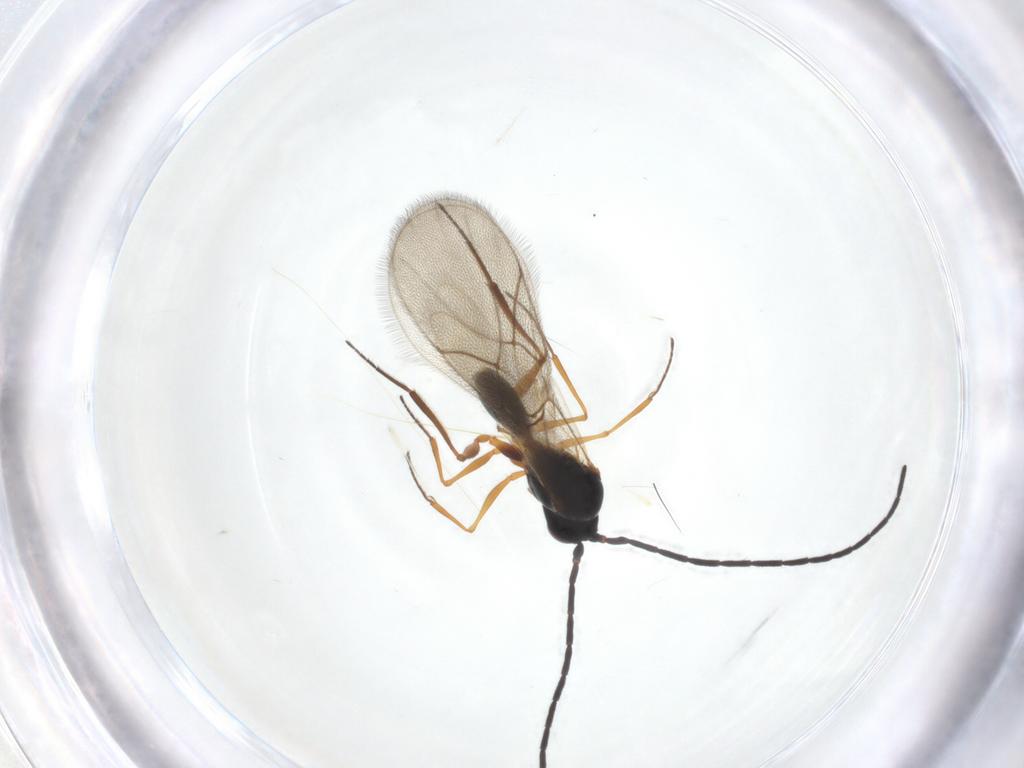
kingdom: Animalia
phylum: Arthropoda
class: Insecta
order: Hymenoptera
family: Figitidae
